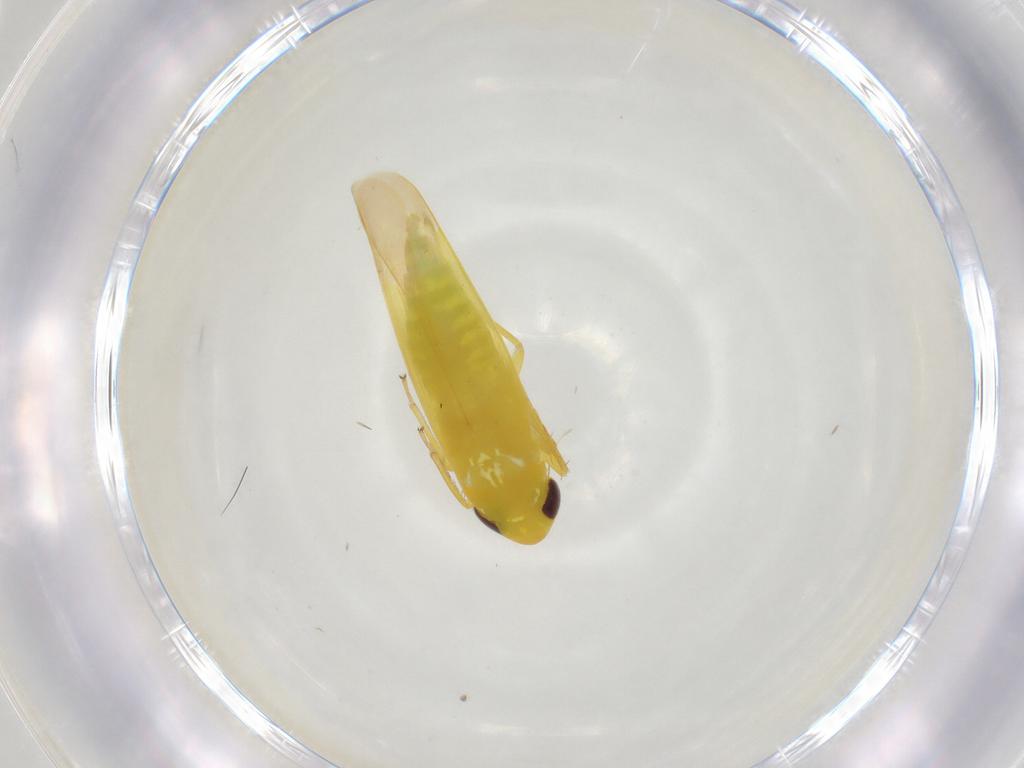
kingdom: Animalia
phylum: Arthropoda
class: Insecta
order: Hemiptera
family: Cicadellidae
